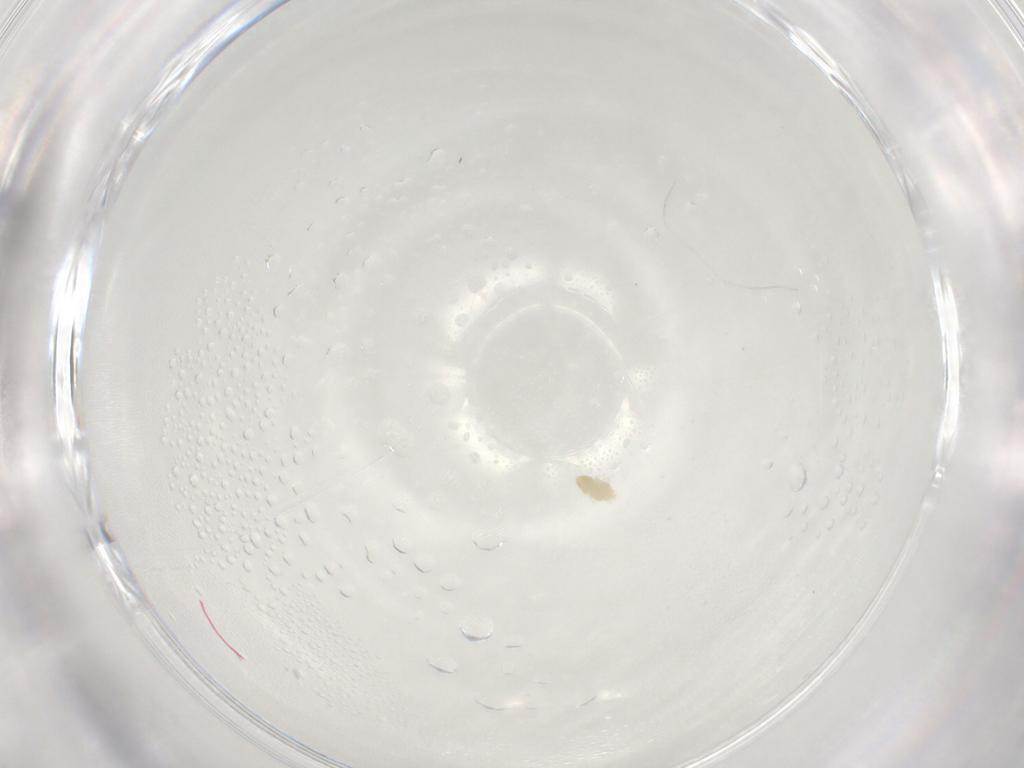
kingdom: Animalia
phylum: Arthropoda
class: Arachnida
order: Trombidiformes
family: Eupodidae
